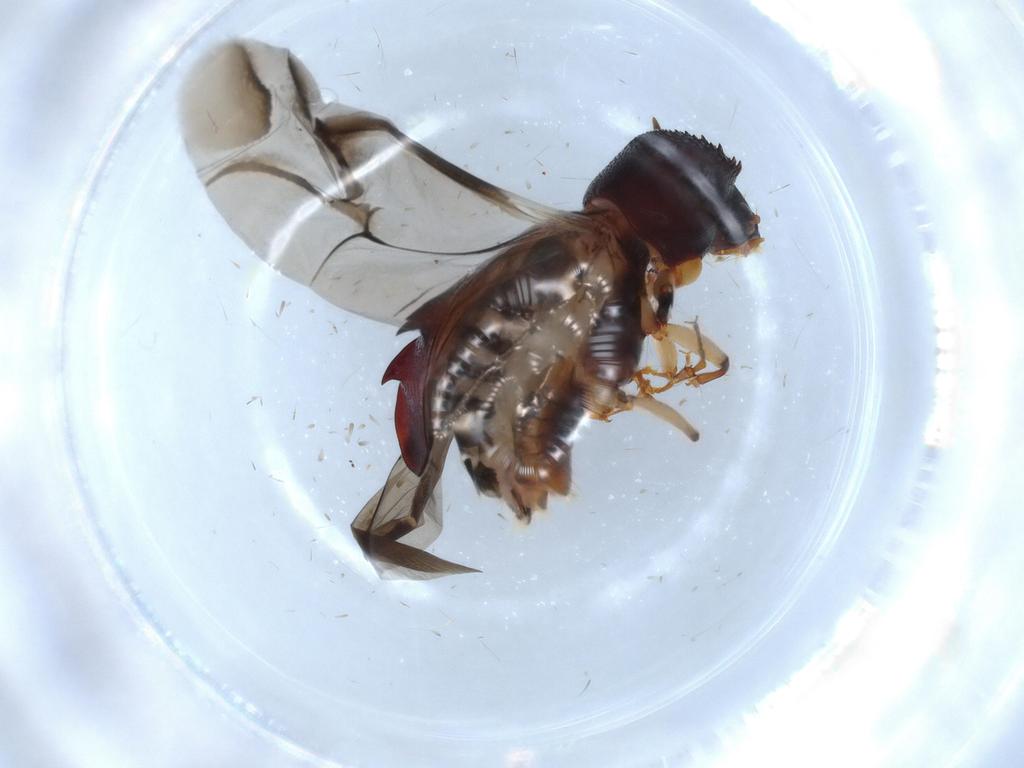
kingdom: Animalia
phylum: Arthropoda
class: Insecta
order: Coleoptera
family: Bostrichidae
